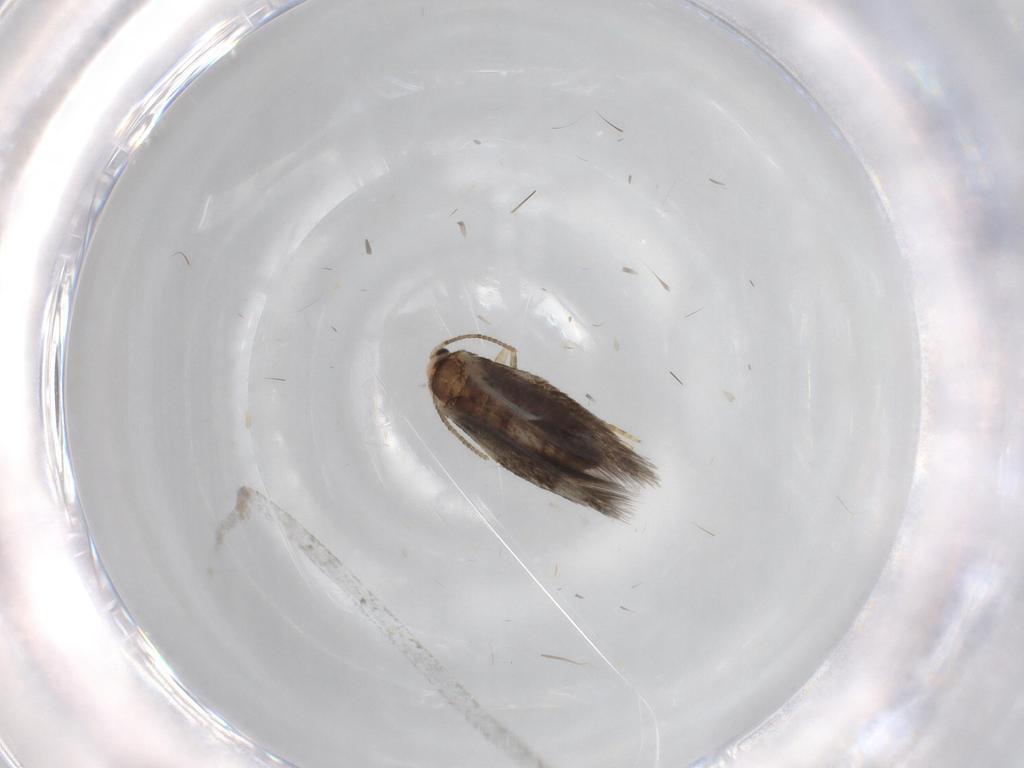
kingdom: Animalia
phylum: Arthropoda
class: Insecta
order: Lepidoptera
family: Nepticulidae
